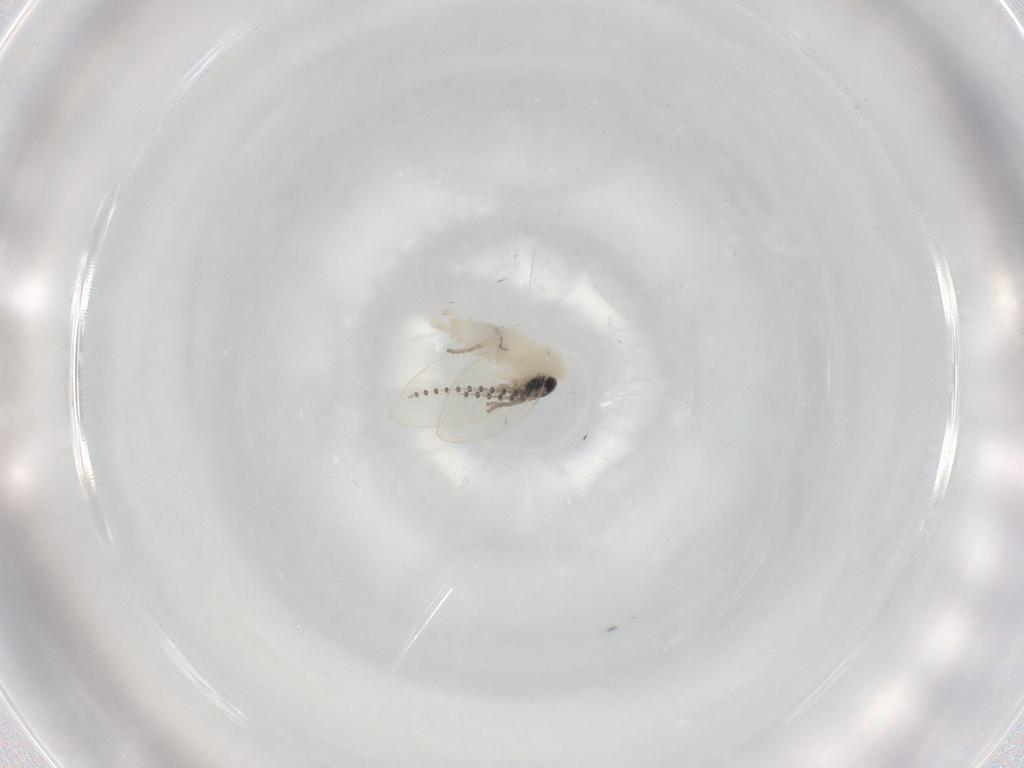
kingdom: Animalia
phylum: Arthropoda
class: Insecta
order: Diptera
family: Psychodidae
